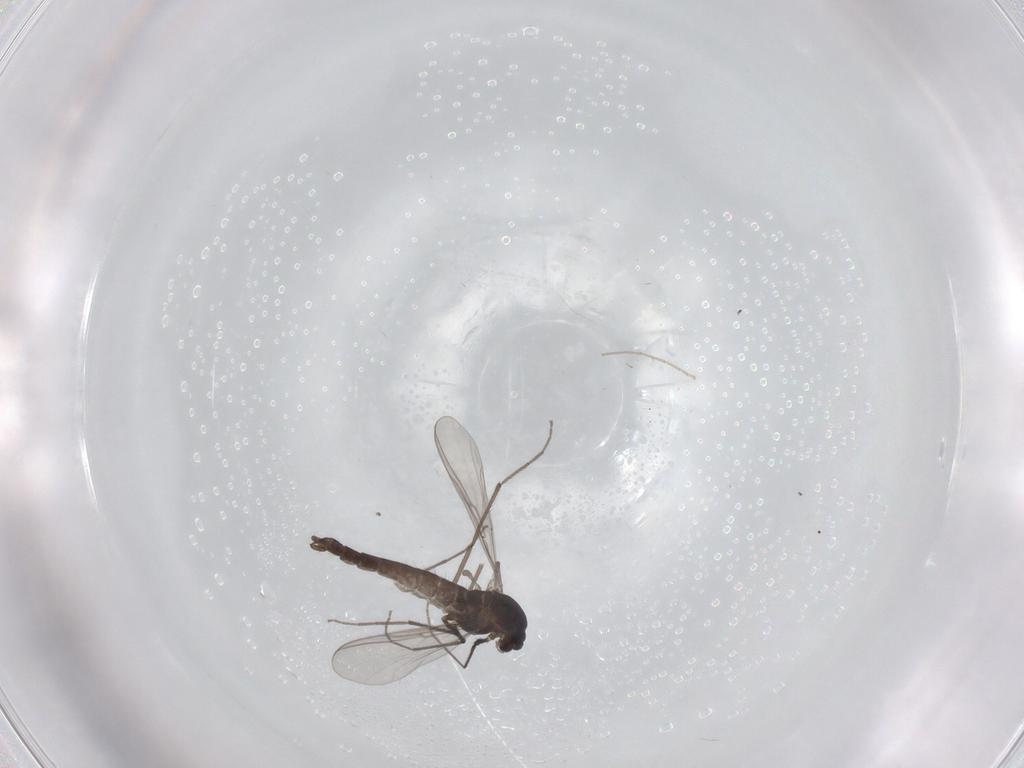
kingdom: Animalia
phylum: Arthropoda
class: Insecta
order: Diptera
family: Chironomidae
